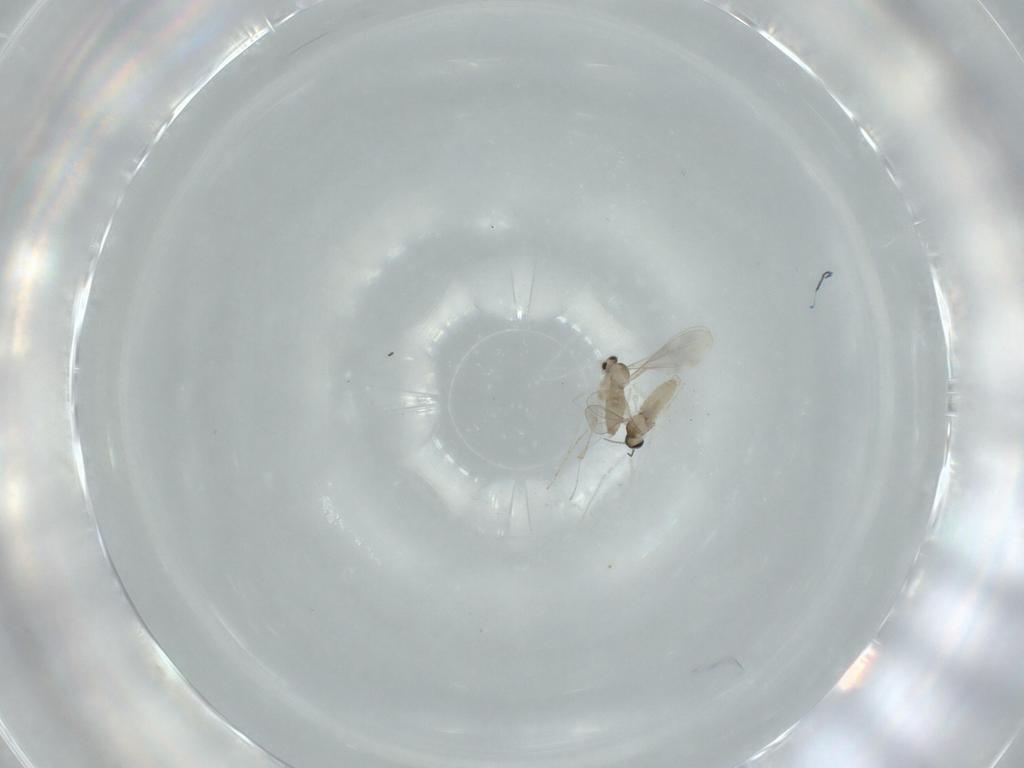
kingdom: Animalia
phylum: Arthropoda
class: Insecta
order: Diptera
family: Cecidomyiidae
